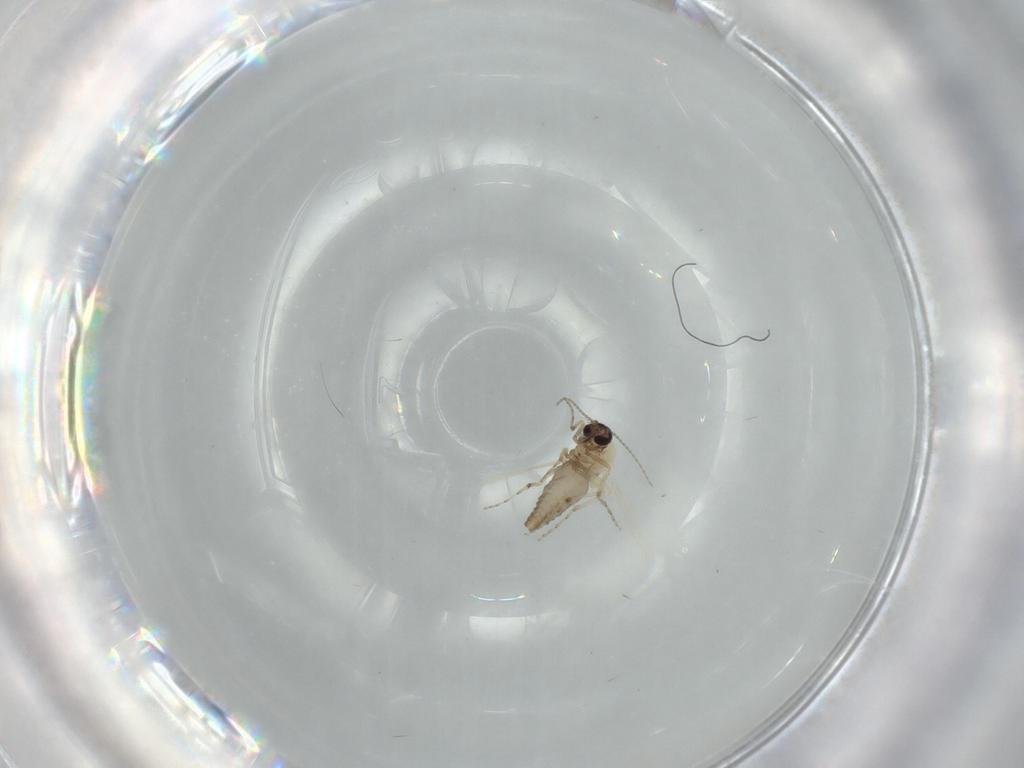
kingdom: Animalia
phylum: Arthropoda
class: Insecta
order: Diptera
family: Ceratopogonidae
